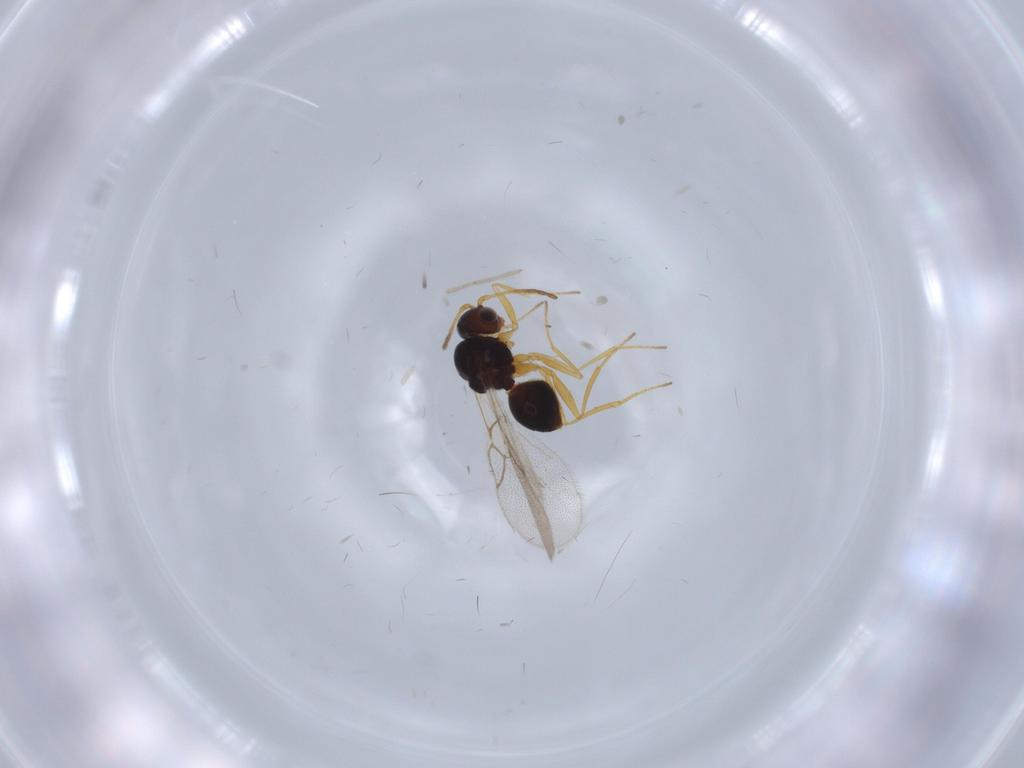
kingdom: Animalia
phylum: Arthropoda
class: Insecta
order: Hymenoptera
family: Figitidae
